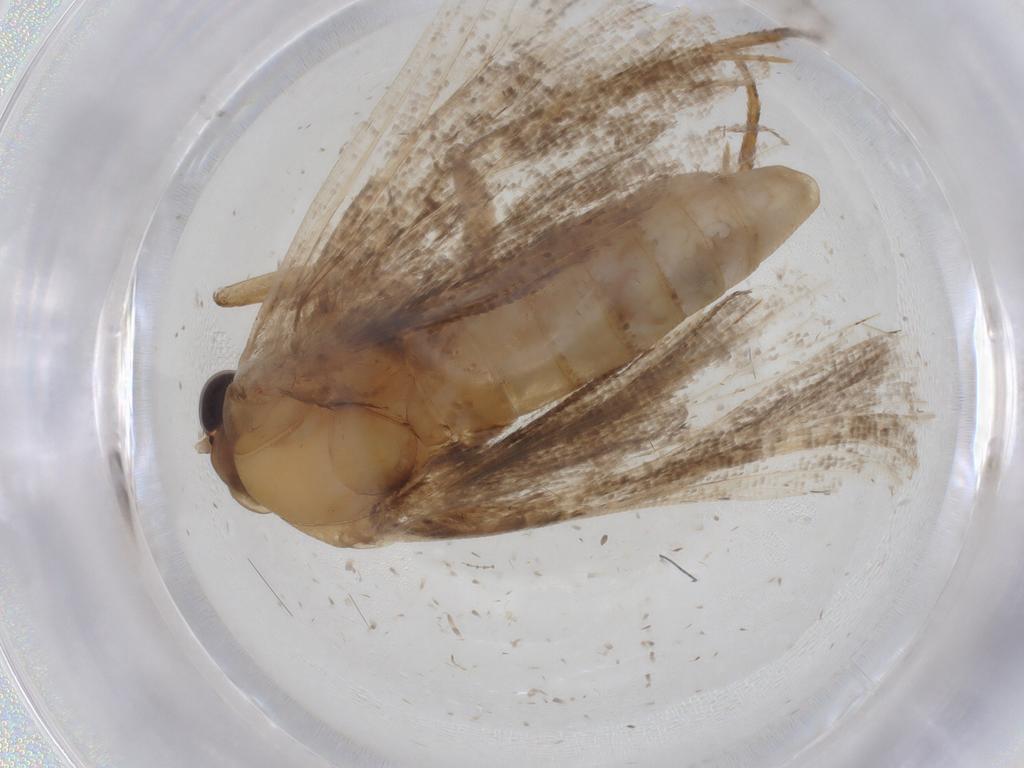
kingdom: Animalia
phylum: Arthropoda
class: Insecta
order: Lepidoptera
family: Erebidae
